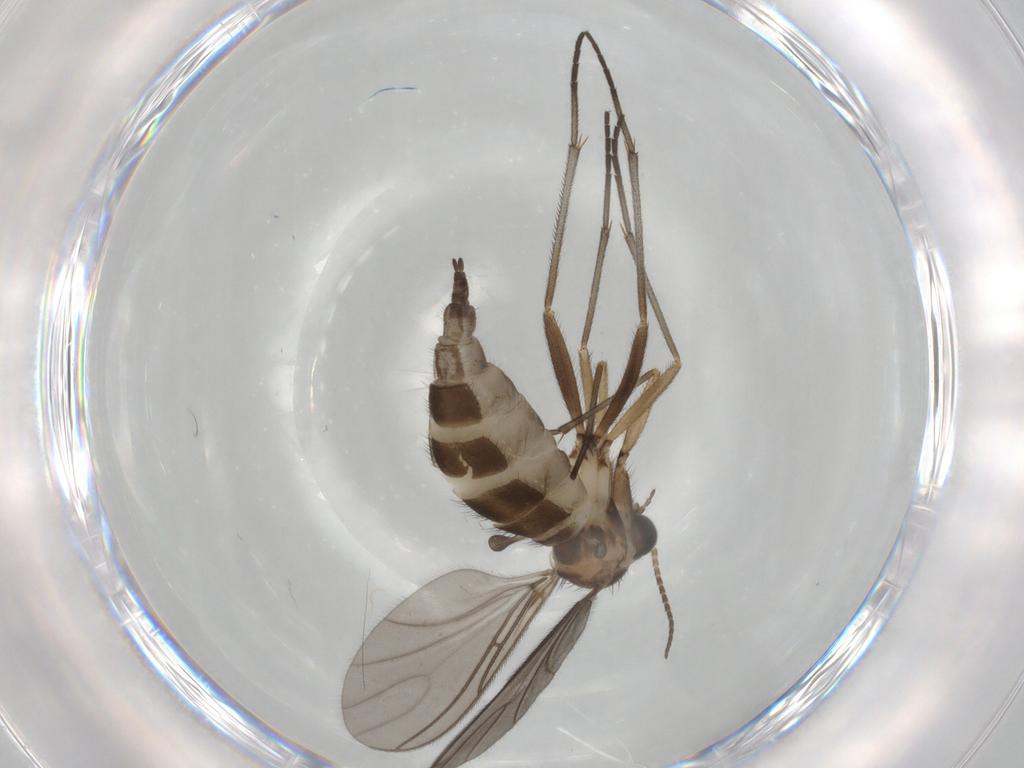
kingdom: Animalia
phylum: Arthropoda
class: Insecta
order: Diptera
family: Sciaridae
